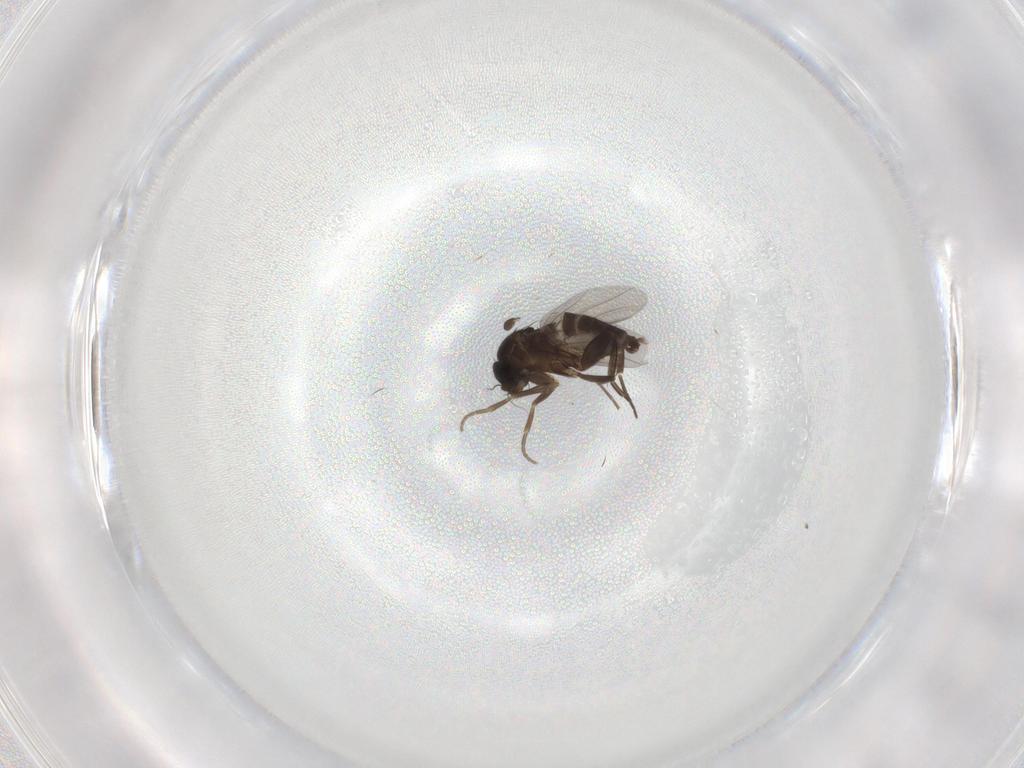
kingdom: Animalia
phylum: Arthropoda
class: Insecta
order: Diptera
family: Phoridae
